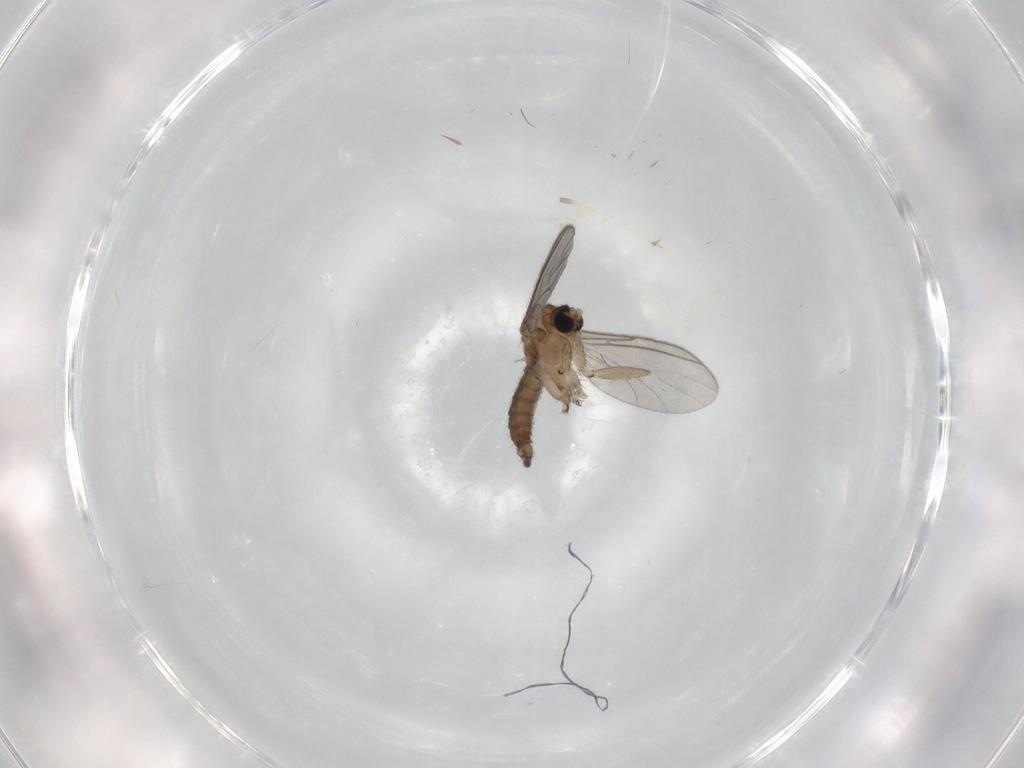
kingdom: Animalia
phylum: Arthropoda
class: Insecta
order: Diptera
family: Sciaridae
